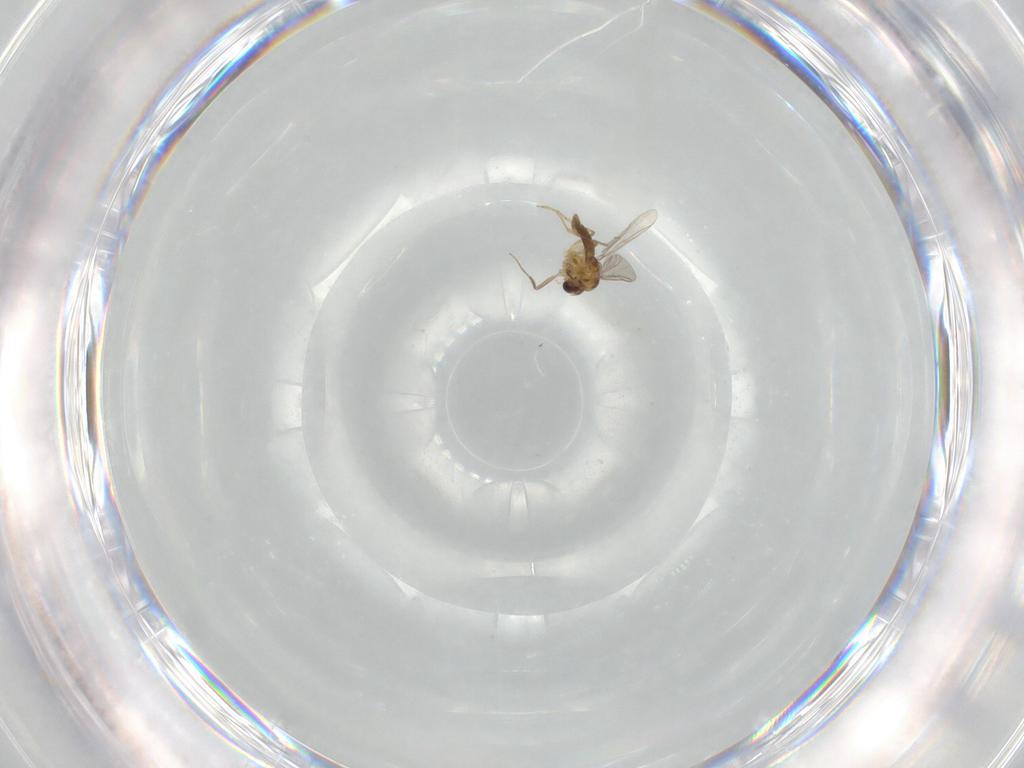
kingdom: Animalia
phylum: Arthropoda
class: Insecta
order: Diptera
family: Chironomidae
